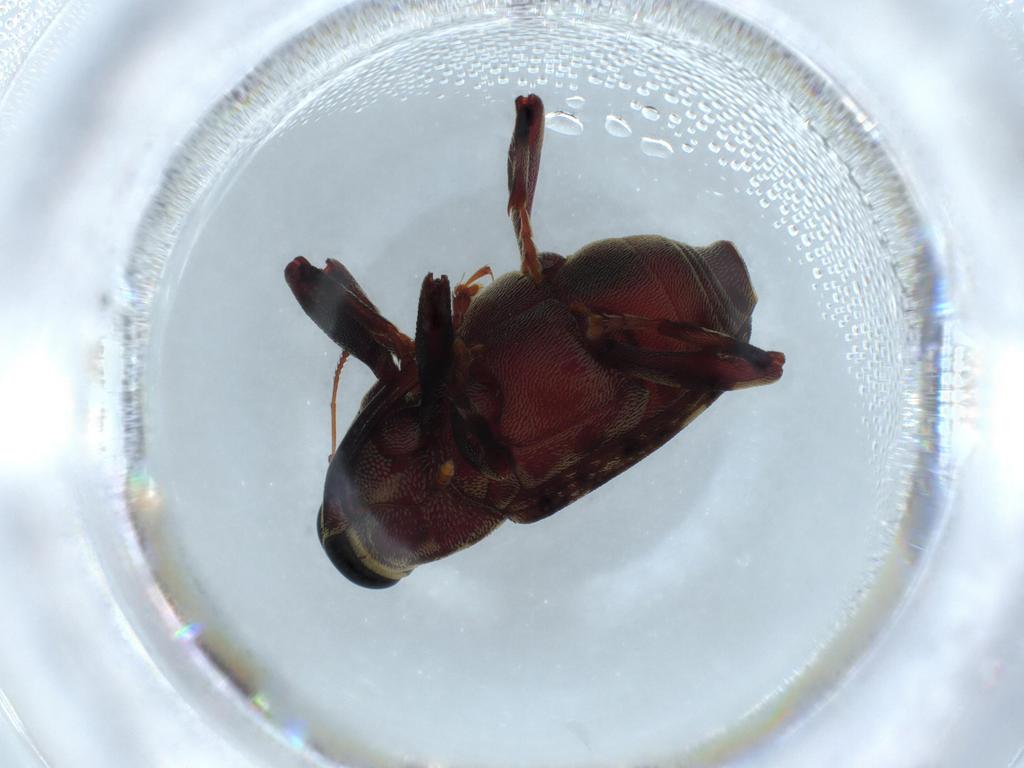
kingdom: Animalia
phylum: Arthropoda
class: Insecta
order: Coleoptera
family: Curculionidae
